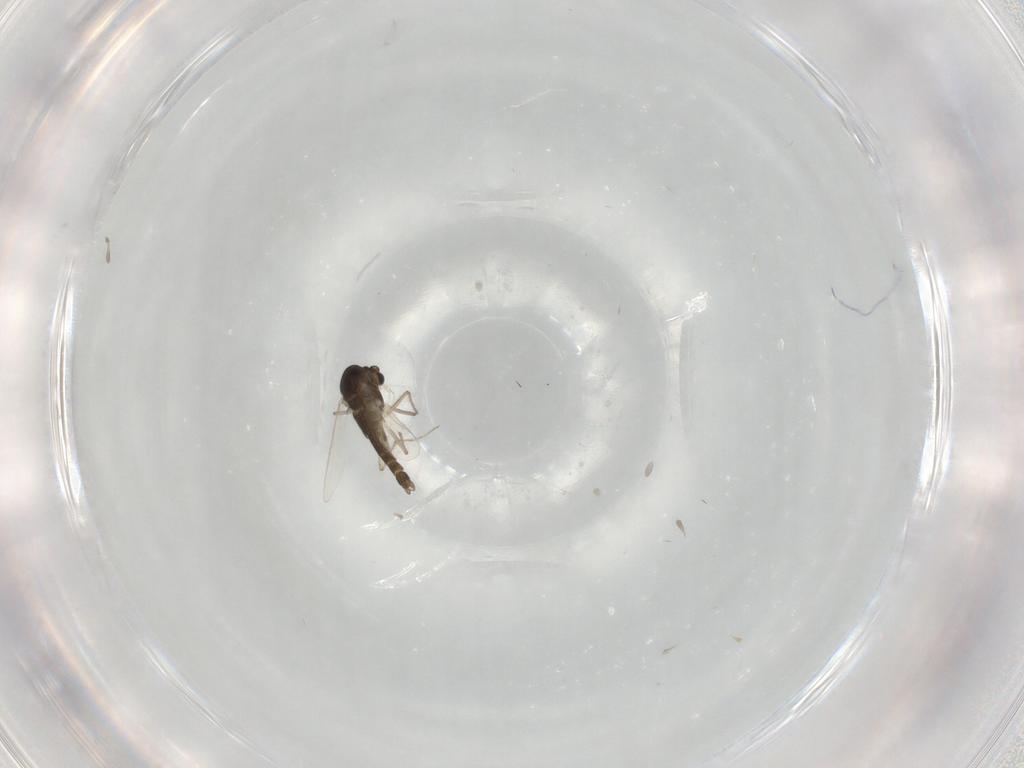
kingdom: Animalia
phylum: Arthropoda
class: Insecta
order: Diptera
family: Chironomidae
